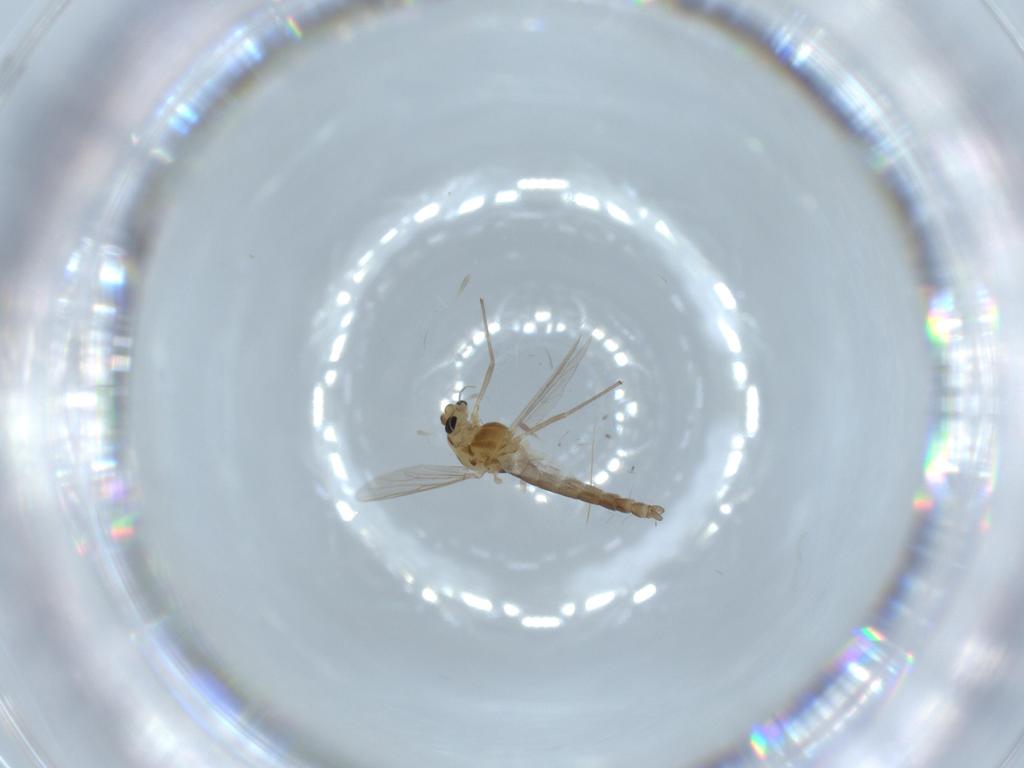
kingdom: Animalia
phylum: Arthropoda
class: Insecta
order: Diptera
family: Chironomidae
